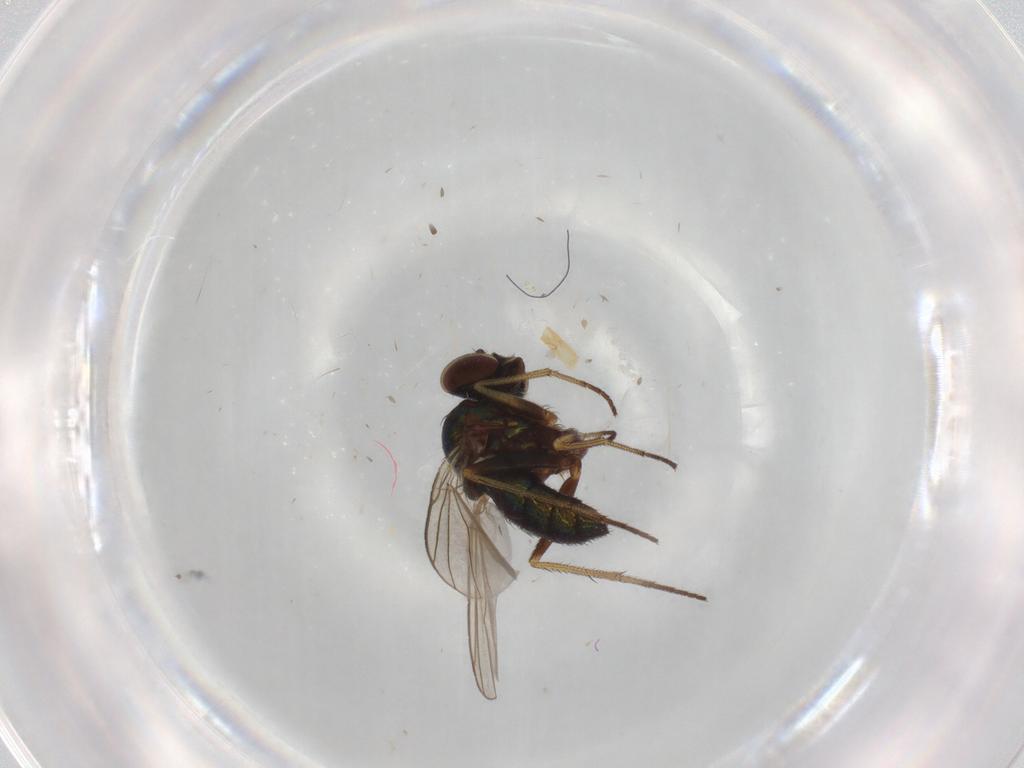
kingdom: Animalia
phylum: Arthropoda
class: Insecta
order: Diptera
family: Chironomidae
